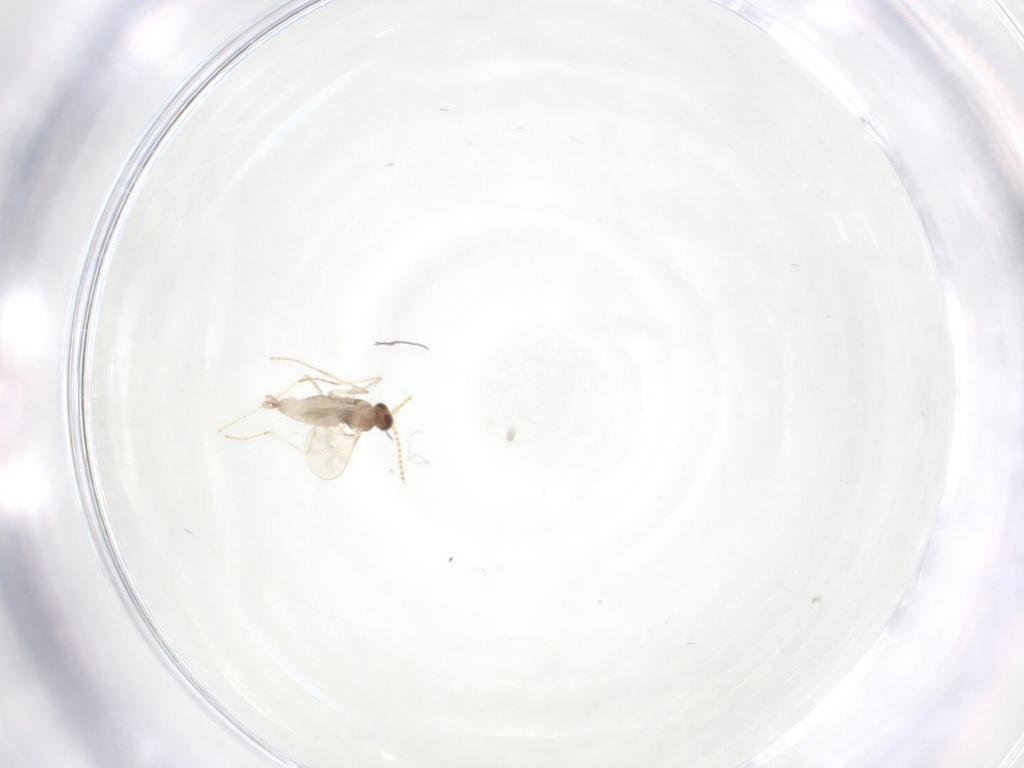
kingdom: Animalia
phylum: Arthropoda
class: Insecta
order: Diptera
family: Cecidomyiidae
